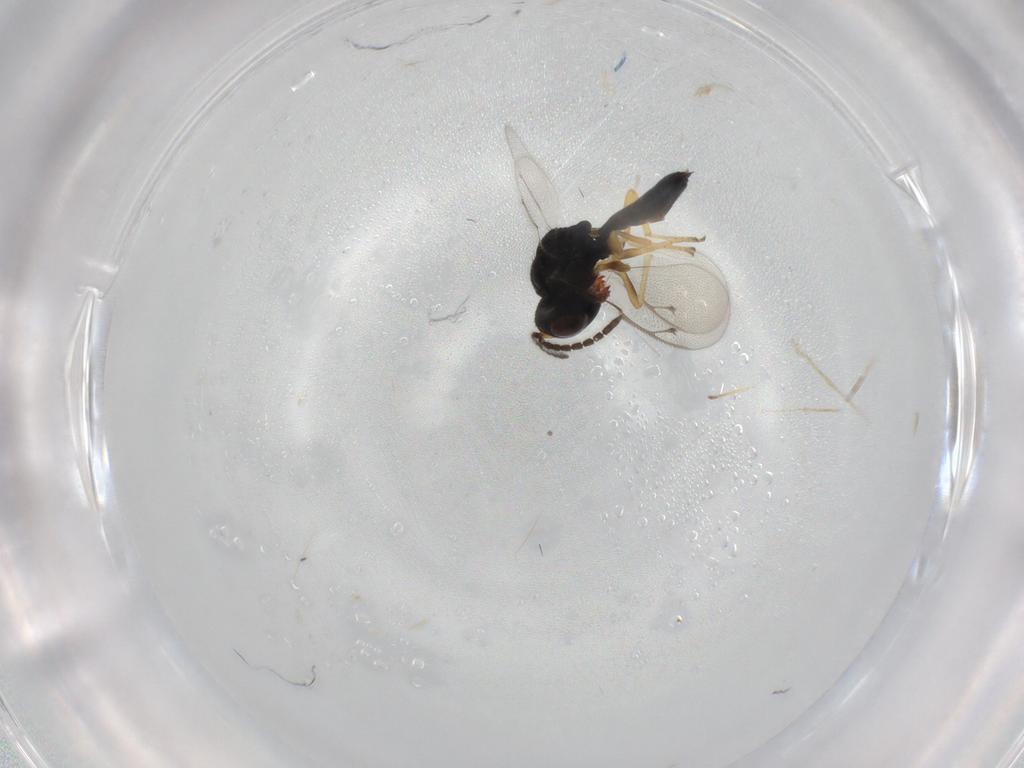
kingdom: Animalia
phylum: Arthropoda
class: Insecta
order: Hymenoptera
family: Pteromalidae
